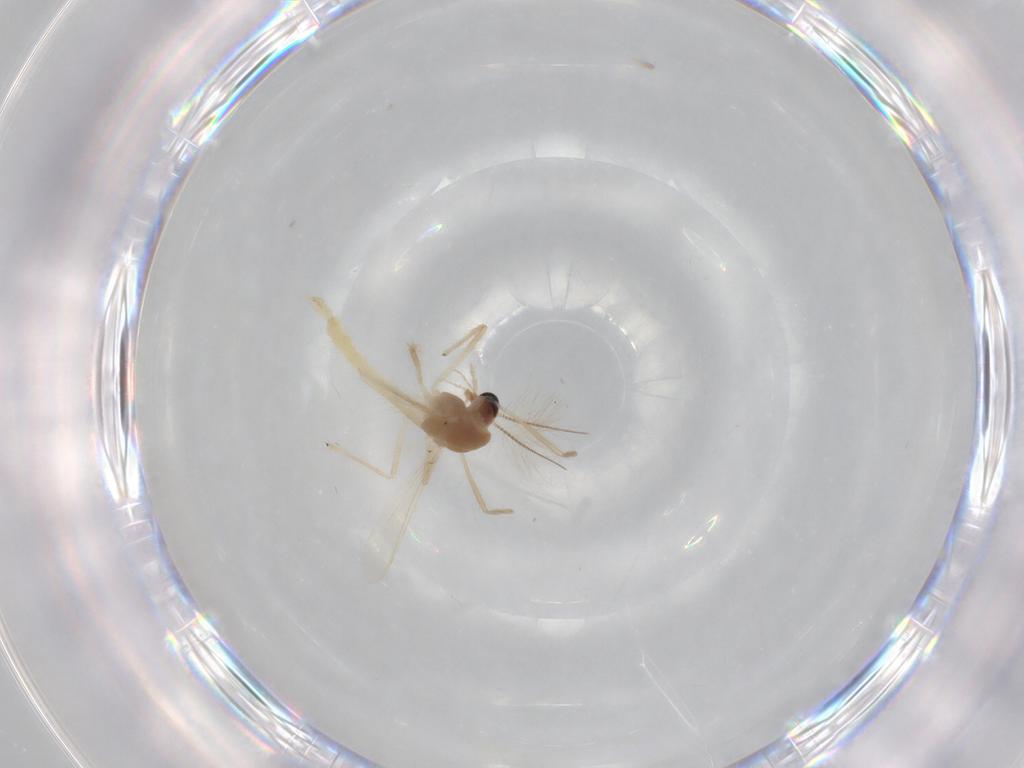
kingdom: Animalia
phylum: Arthropoda
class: Insecta
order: Diptera
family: Chironomidae
